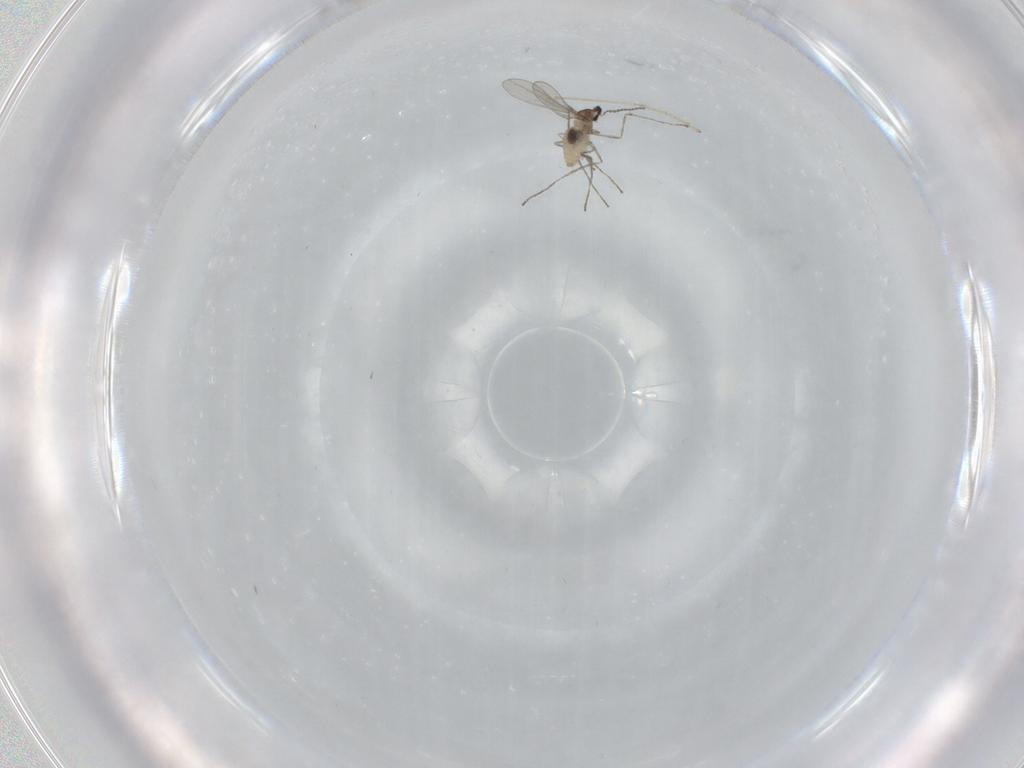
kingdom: Animalia
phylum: Arthropoda
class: Insecta
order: Diptera
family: Cecidomyiidae
